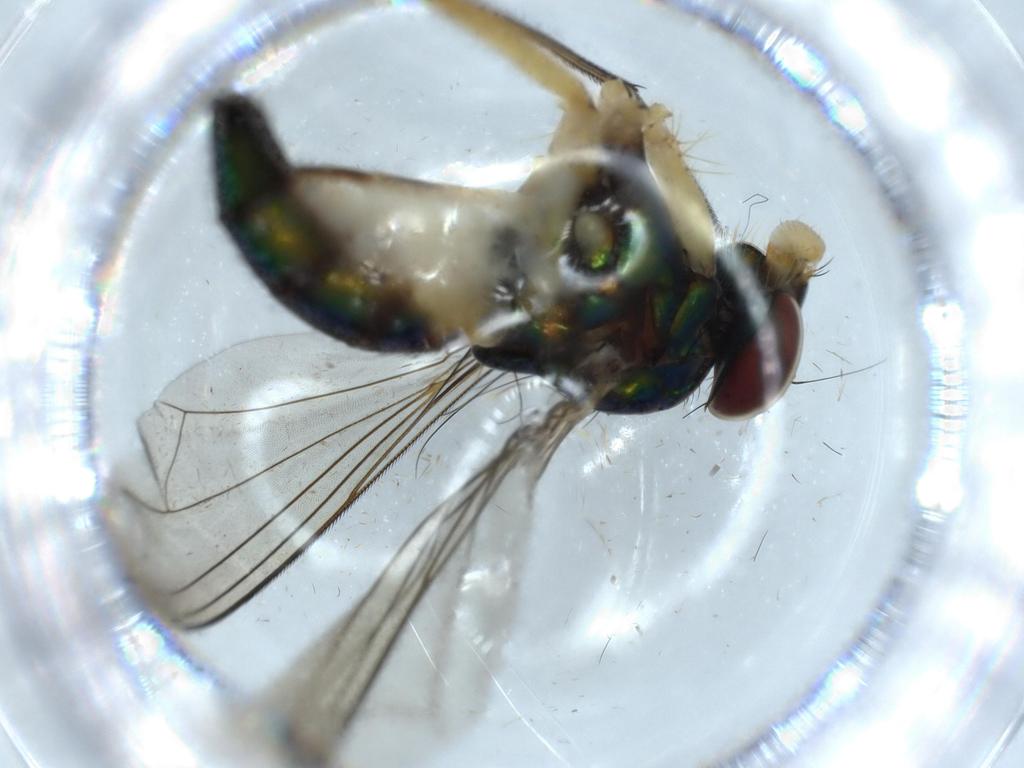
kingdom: Animalia
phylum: Arthropoda
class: Insecta
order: Diptera
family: Dolichopodidae
